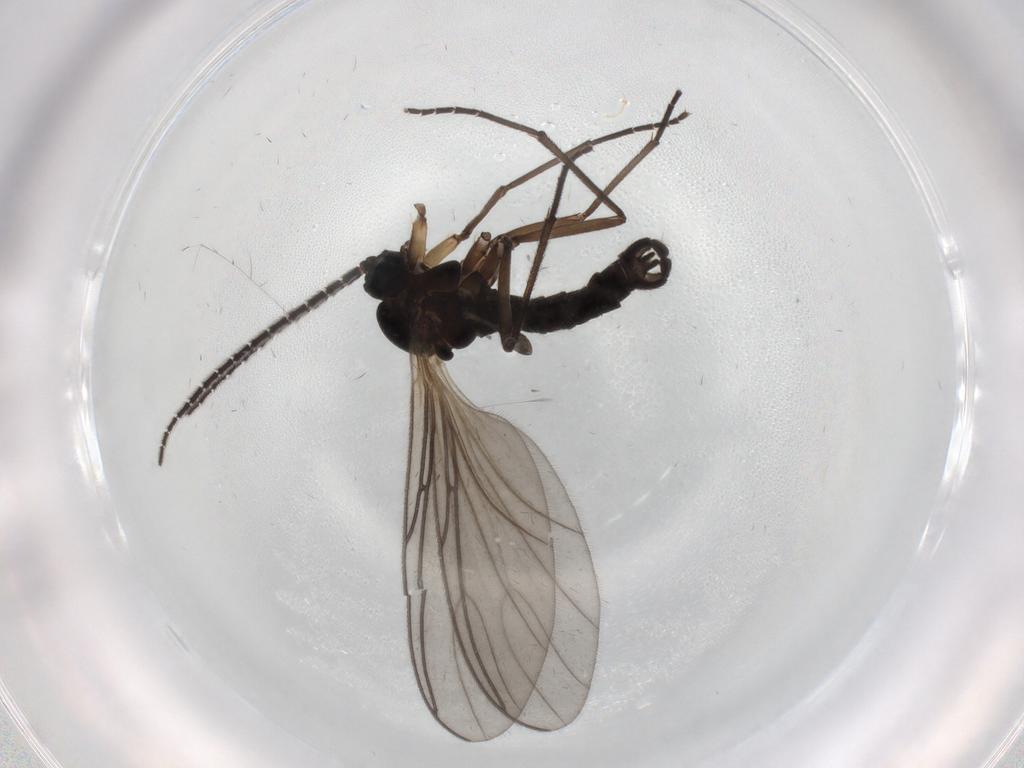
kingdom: Animalia
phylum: Arthropoda
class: Insecta
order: Diptera
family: Sciaridae
